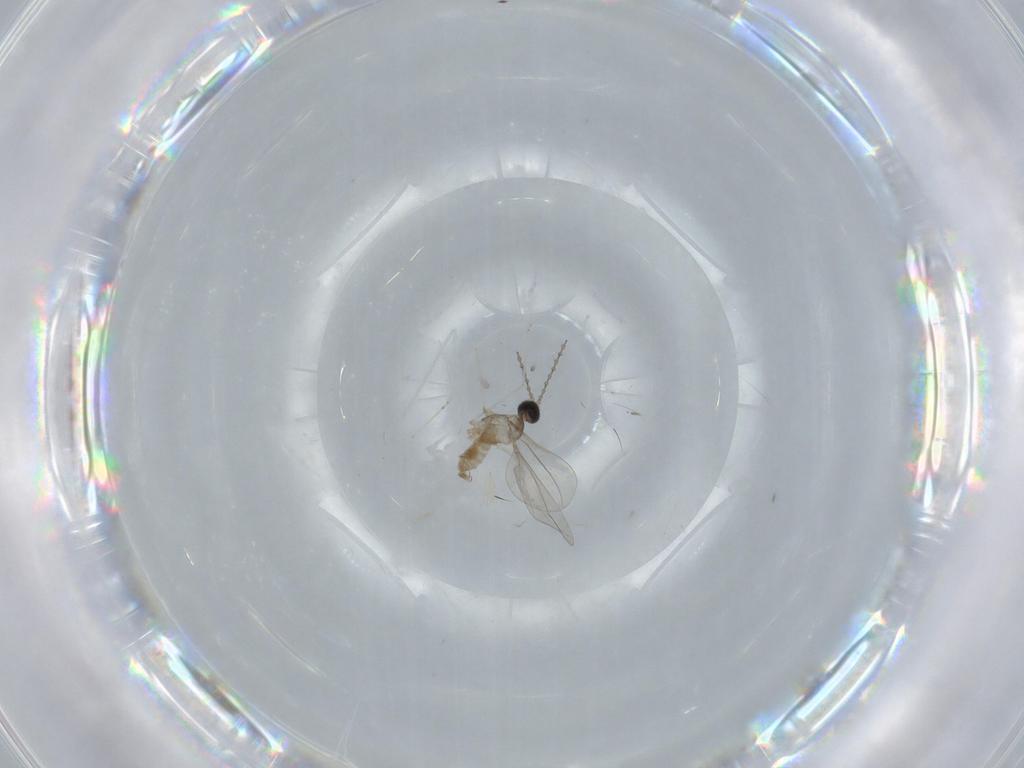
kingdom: Animalia
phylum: Arthropoda
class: Insecta
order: Diptera
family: Cecidomyiidae
